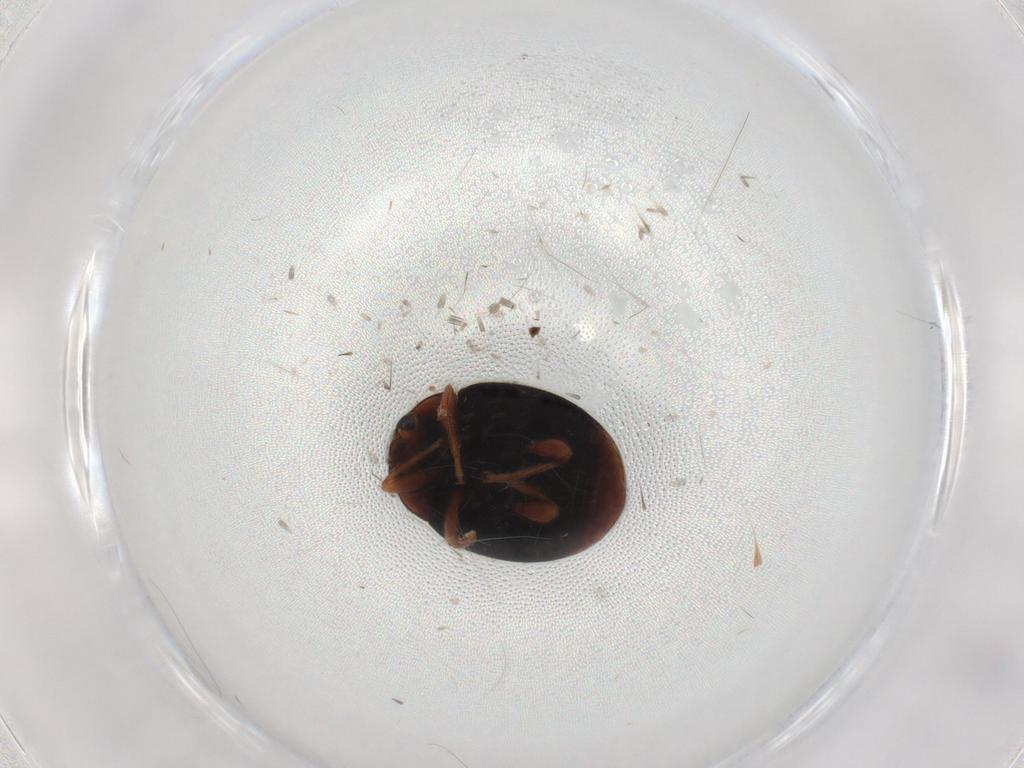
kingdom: Animalia
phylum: Arthropoda
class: Insecta
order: Coleoptera
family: Coccinellidae
